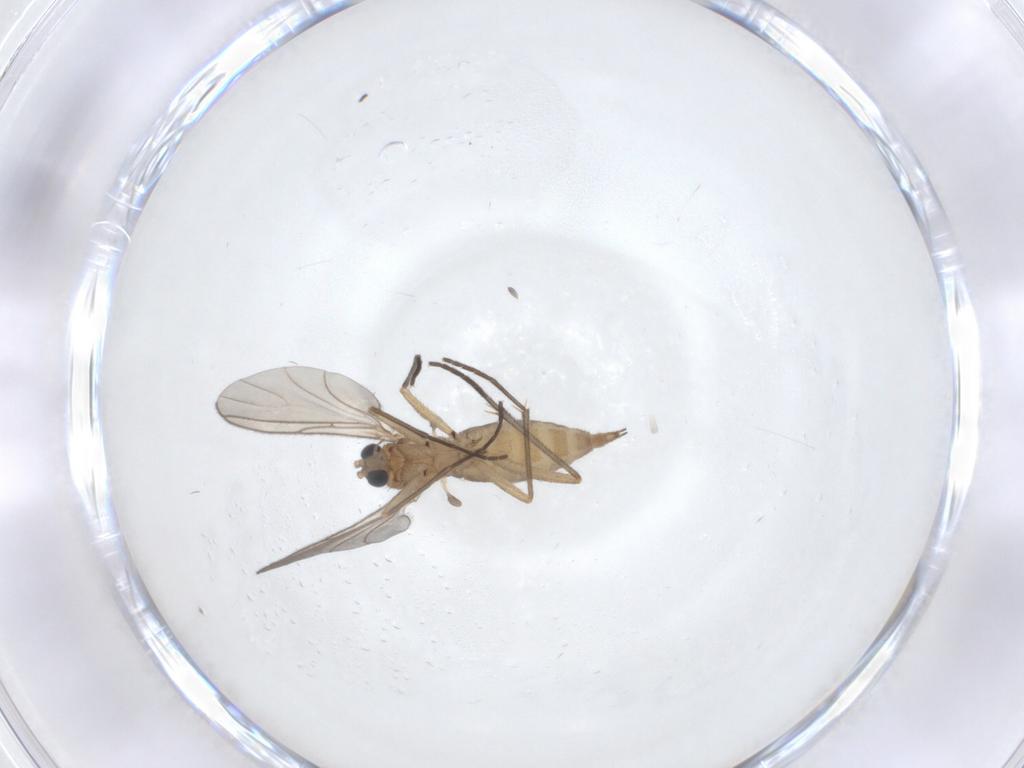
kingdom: Animalia
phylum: Arthropoda
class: Insecta
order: Diptera
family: Sciaridae
